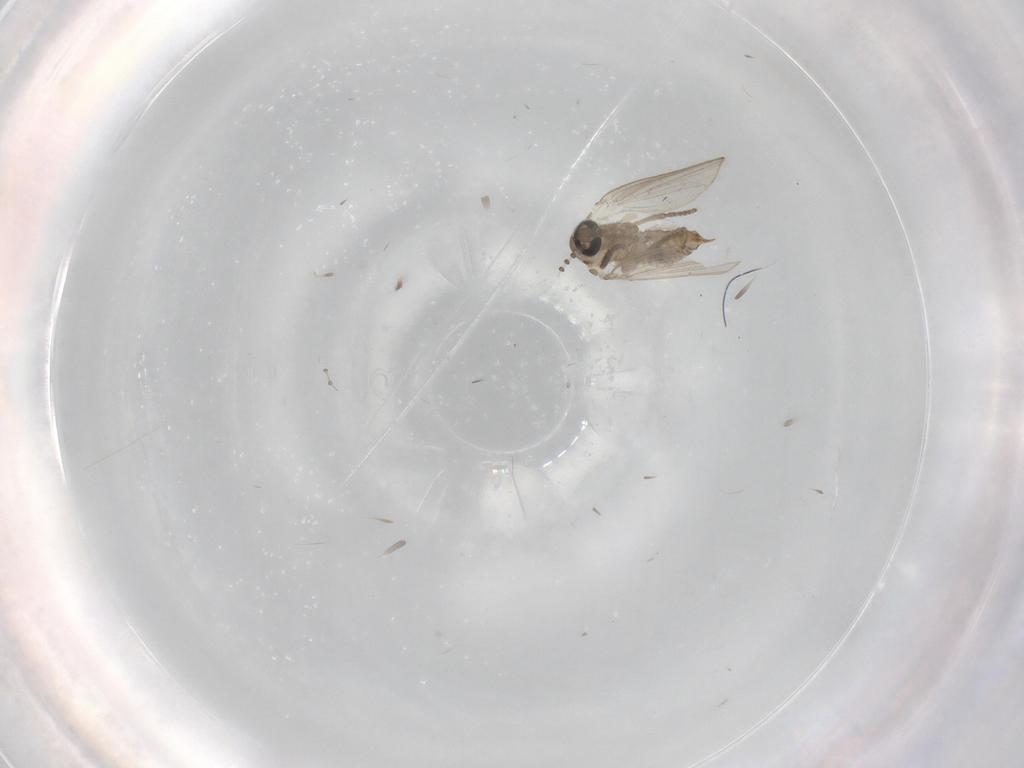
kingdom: Animalia
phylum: Arthropoda
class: Insecta
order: Diptera
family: Psychodidae
